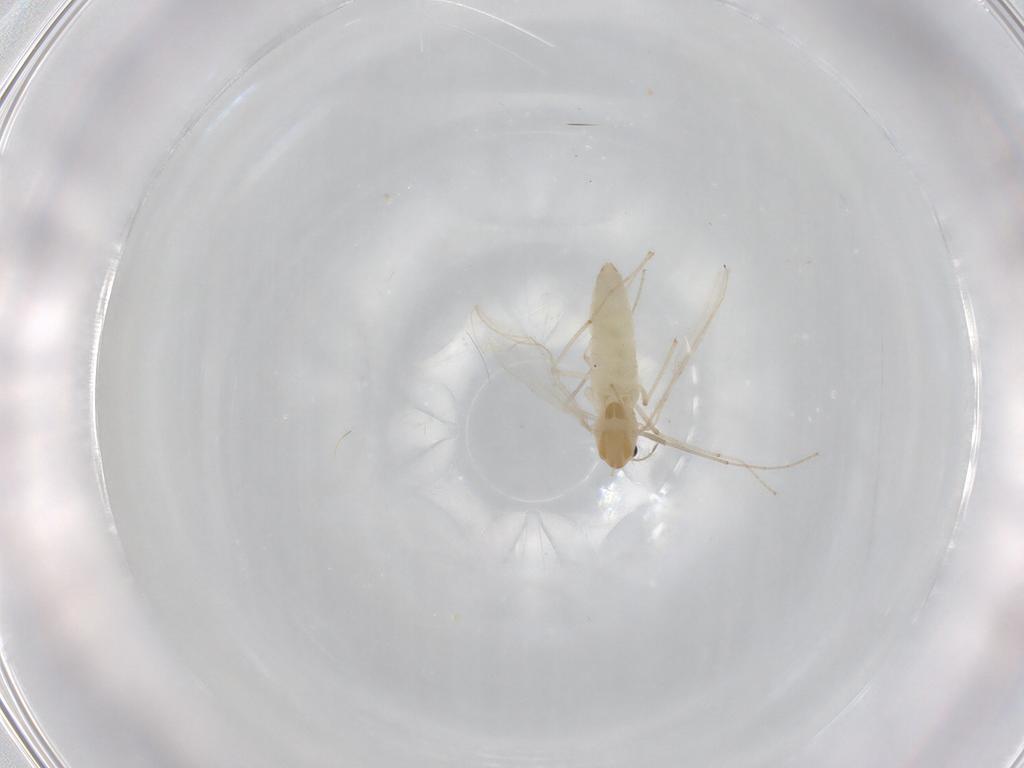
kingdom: Animalia
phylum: Arthropoda
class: Insecta
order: Diptera
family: Chironomidae
